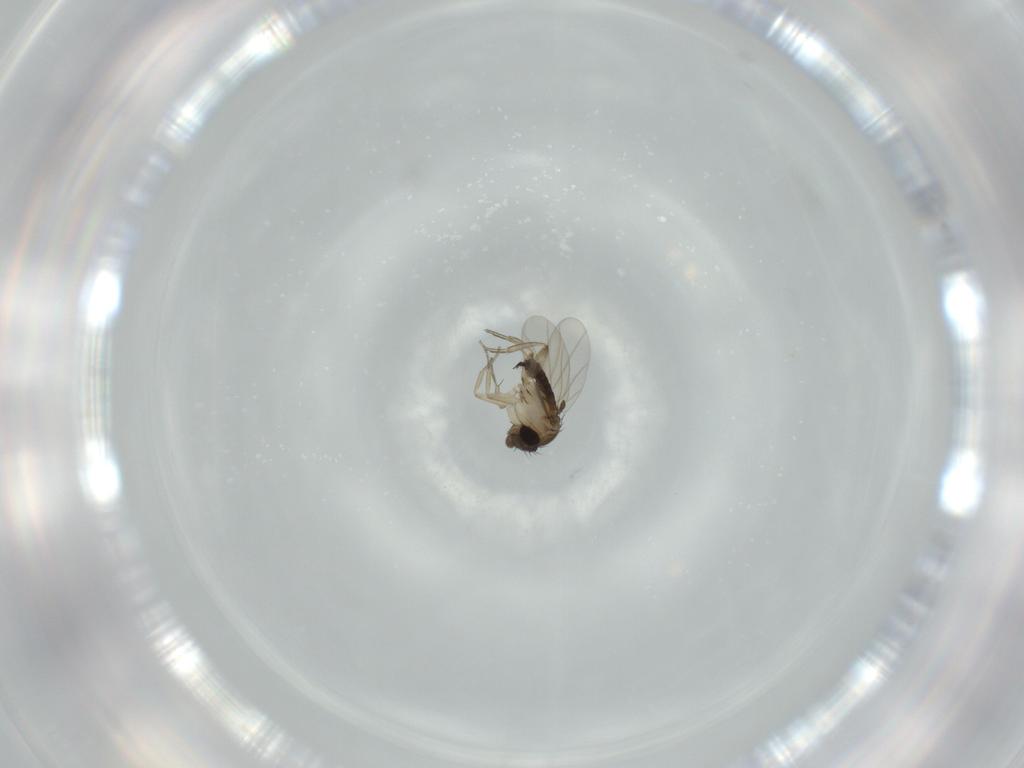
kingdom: Animalia
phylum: Arthropoda
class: Insecta
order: Diptera
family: Phoridae
